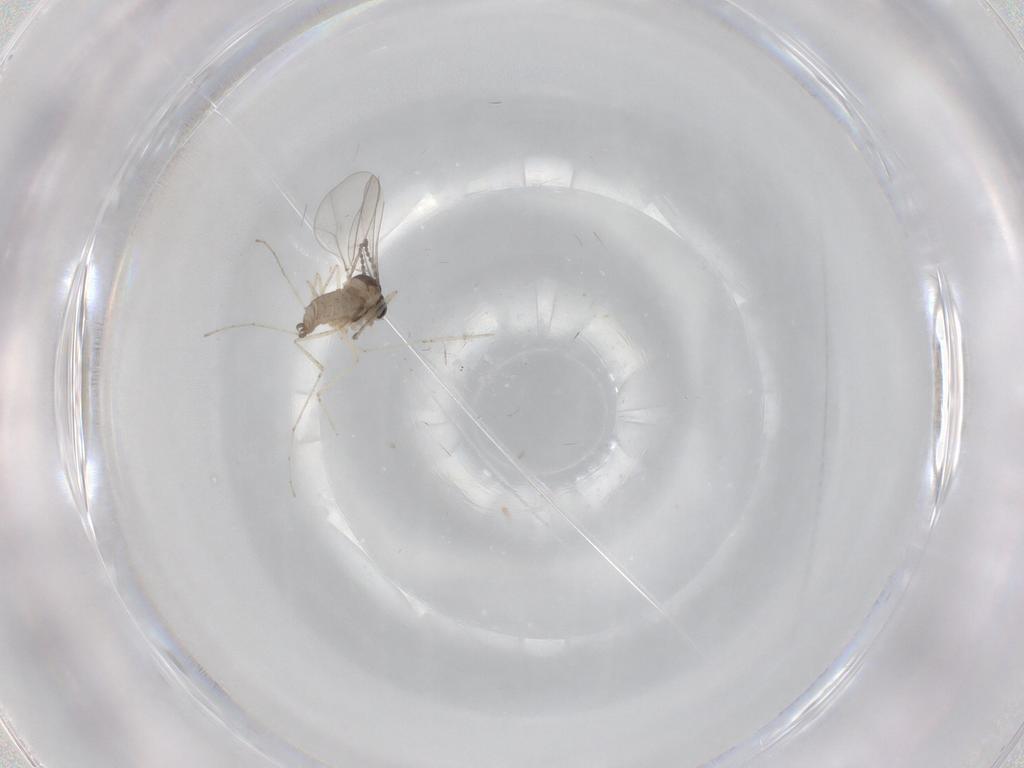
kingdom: Animalia
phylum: Arthropoda
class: Insecta
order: Diptera
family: Cecidomyiidae
